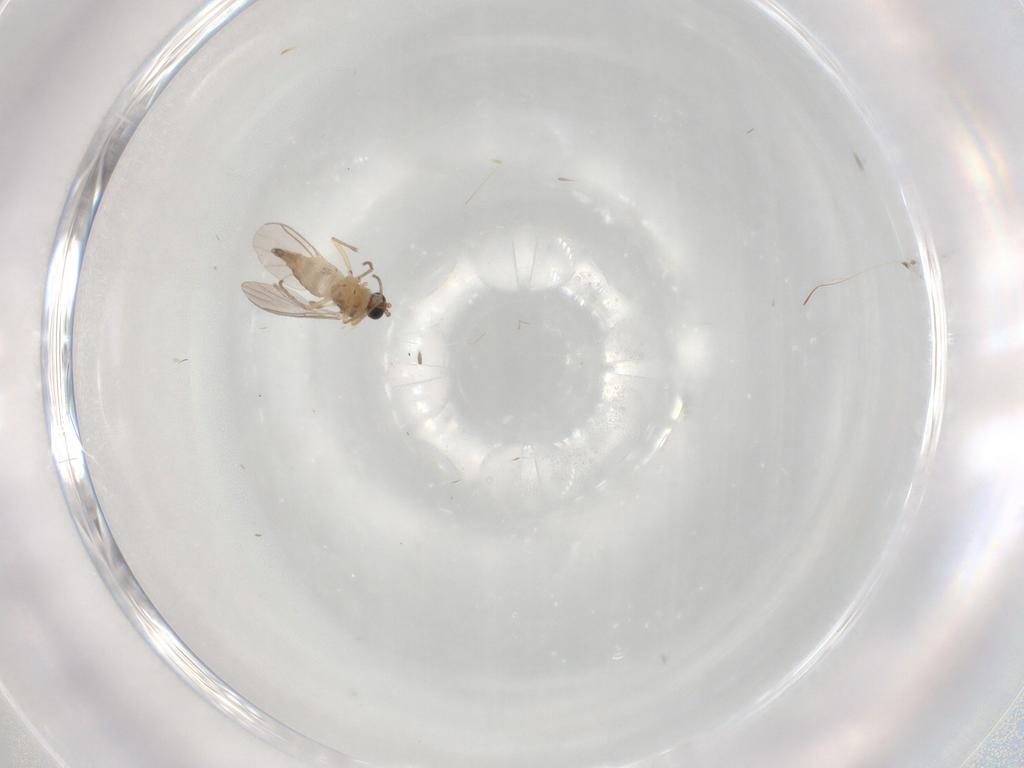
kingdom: Animalia
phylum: Arthropoda
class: Insecta
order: Diptera
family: Sciaridae
